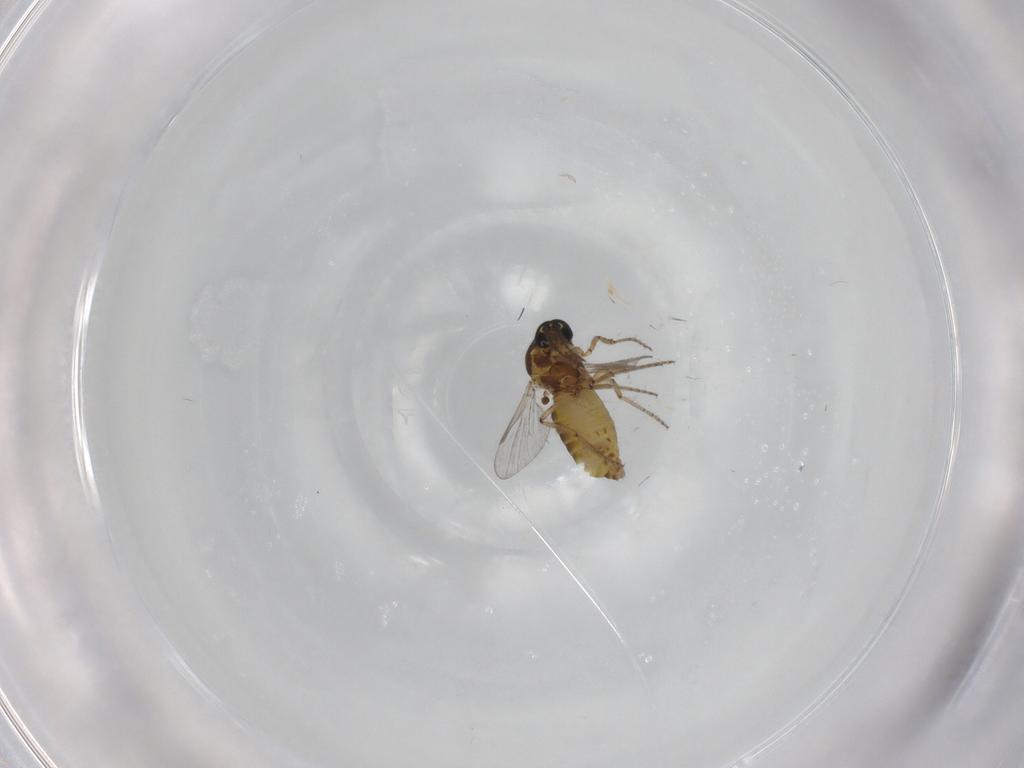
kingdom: Animalia
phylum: Arthropoda
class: Insecta
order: Diptera
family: Ceratopogonidae
